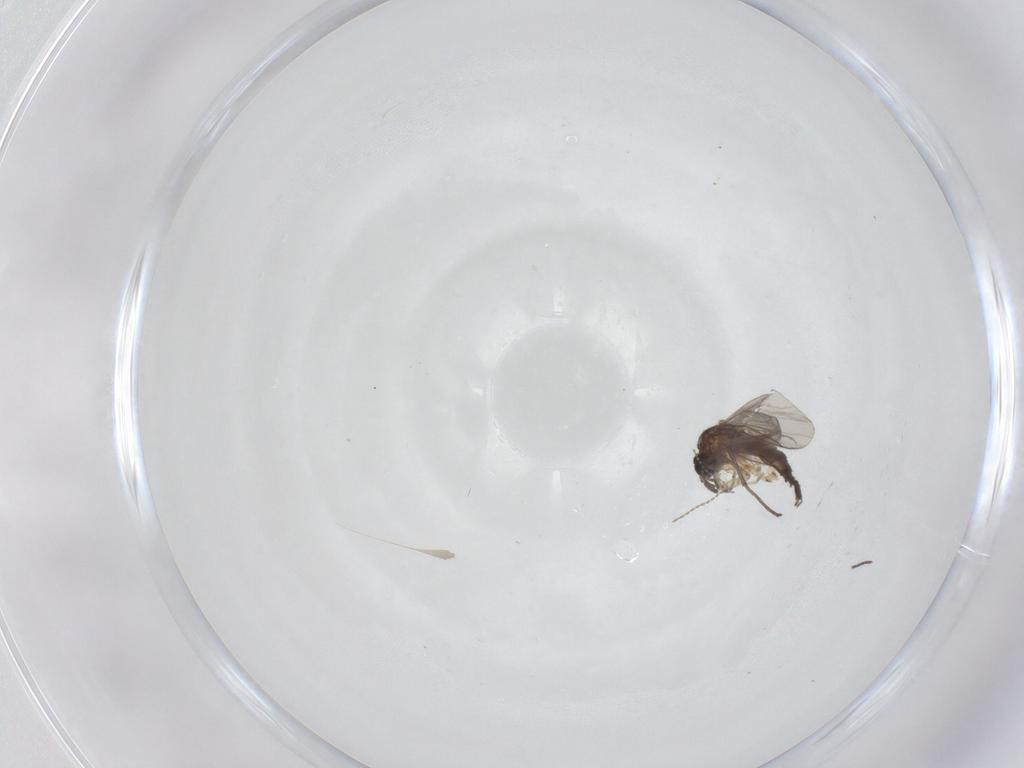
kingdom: Animalia
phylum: Arthropoda
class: Insecta
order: Diptera
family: Sciaridae
